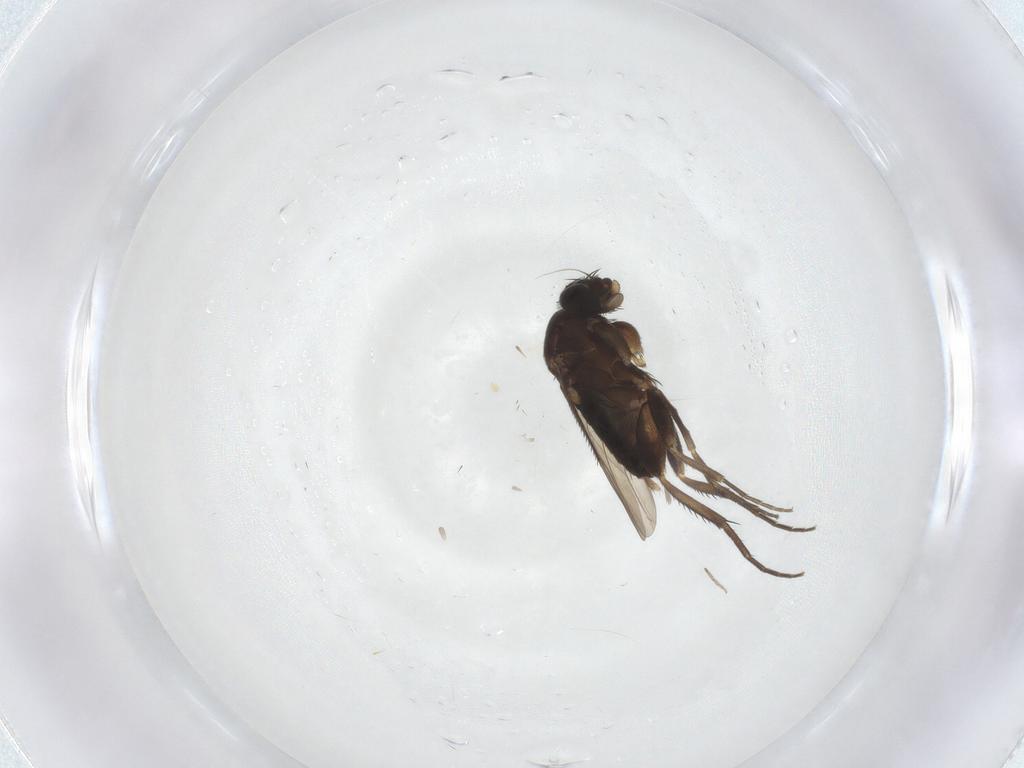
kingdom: Animalia
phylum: Arthropoda
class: Insecta
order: Diptera
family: Phoridae
